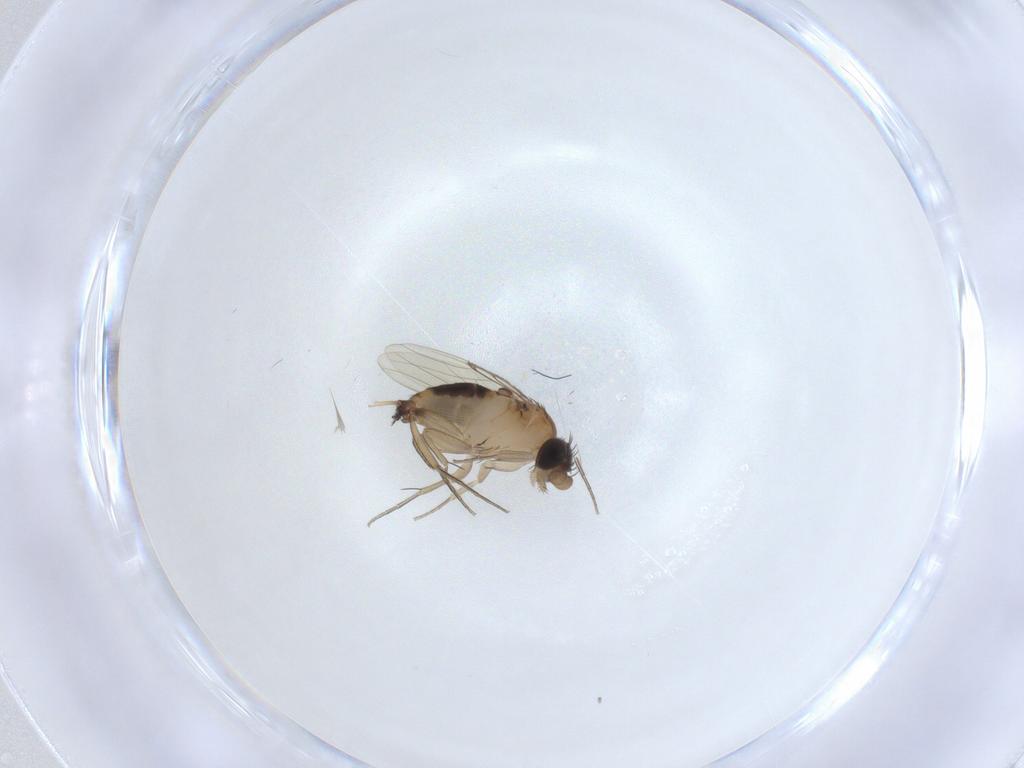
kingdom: Animalia
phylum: Arthropoda
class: Insecta
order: Diptera
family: Phoridae
